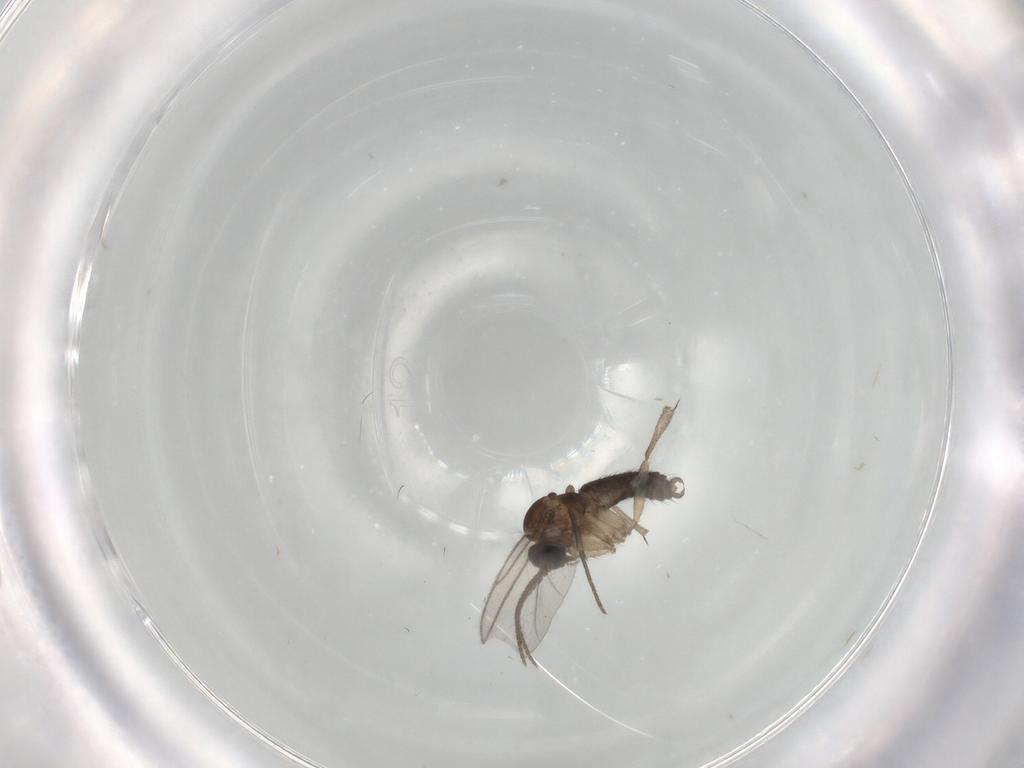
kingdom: Animalia
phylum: Arthropoda
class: Insecta
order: Diptera
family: Sciaridae
